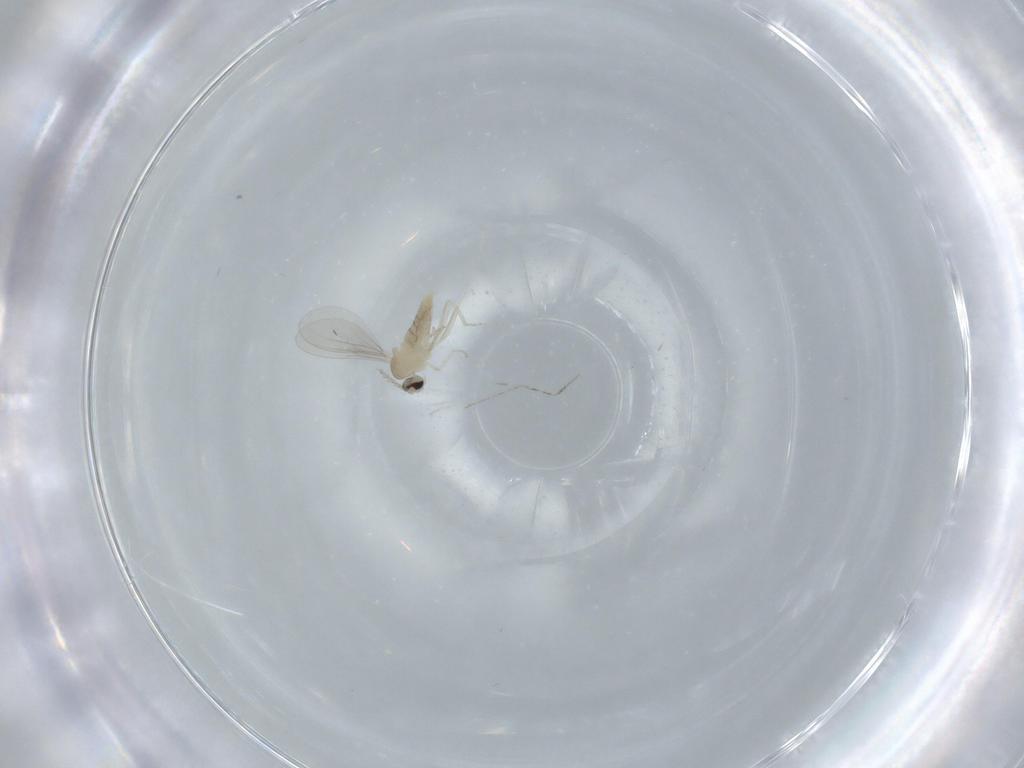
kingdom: Animalia
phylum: Arthropoda
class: Insecta
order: Diptera
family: Cecidomyiidae
